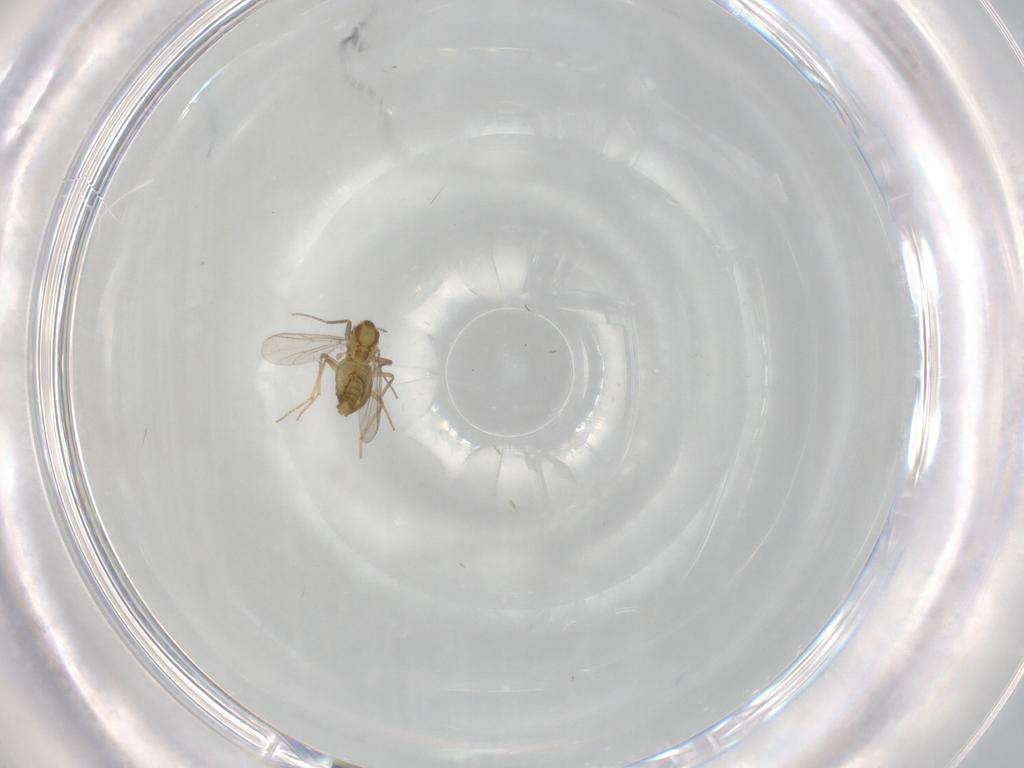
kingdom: Animalia
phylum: Arthropoda
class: Insecta
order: Diptera
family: Chironomidae
